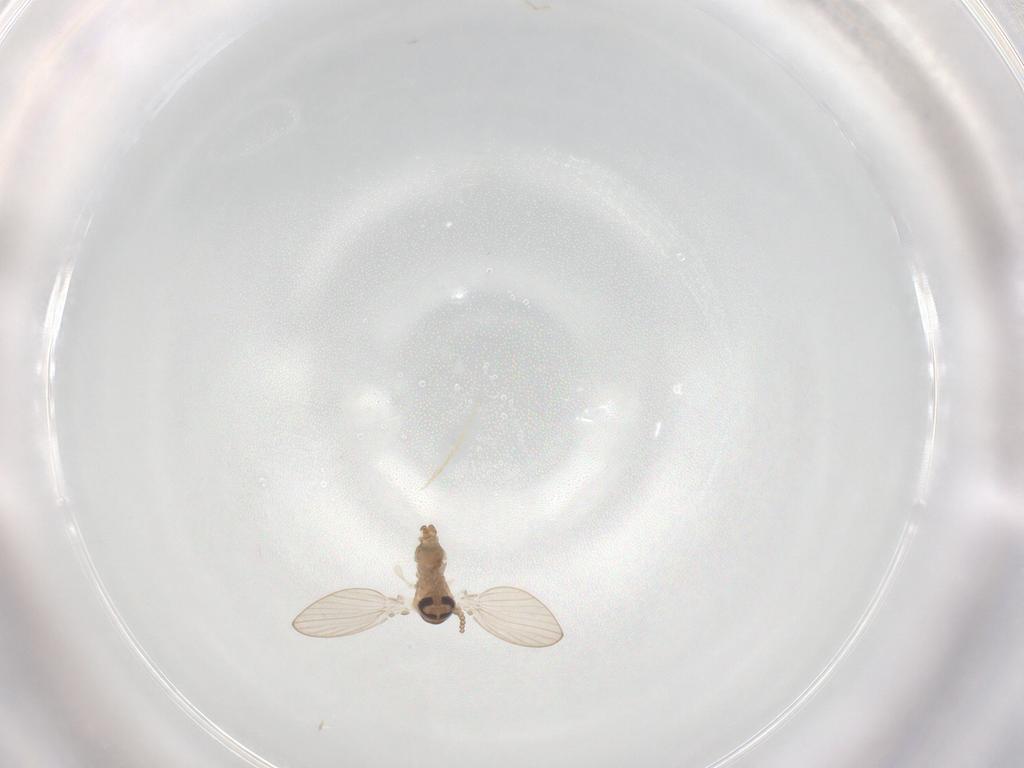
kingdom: Animalia
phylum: Arthropoda
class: Insecta
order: Diptera
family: Psychodidae
